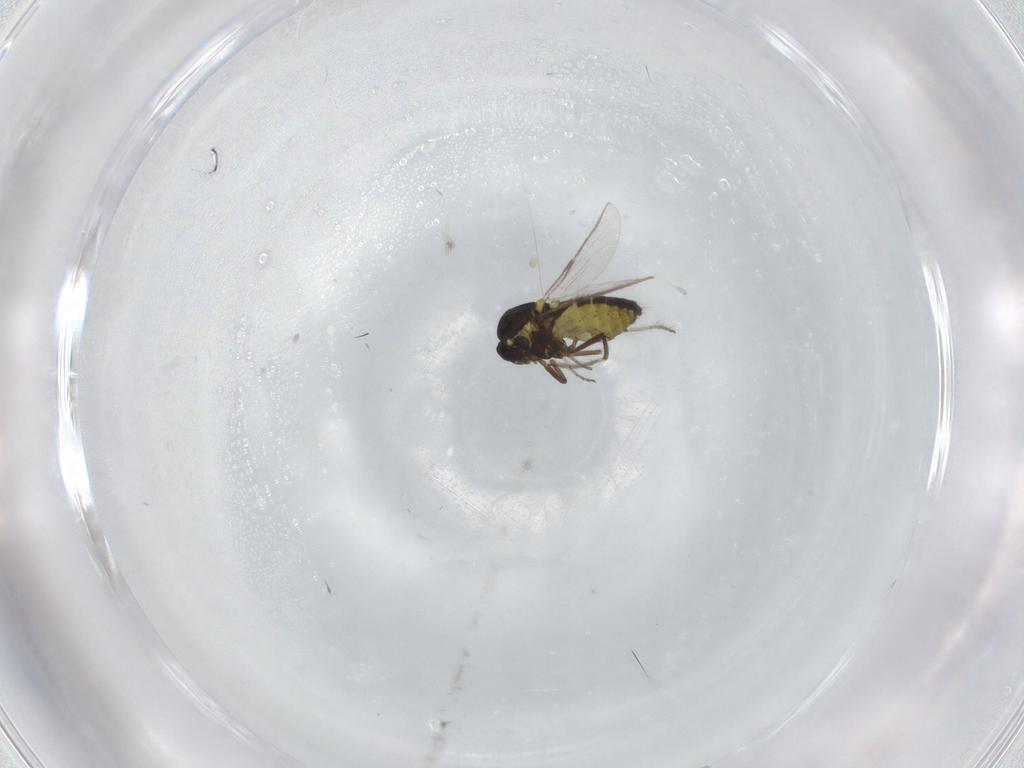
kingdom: Animalia
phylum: Arthropoda
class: Insecta
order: Diptera
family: Ceratopogonidae
